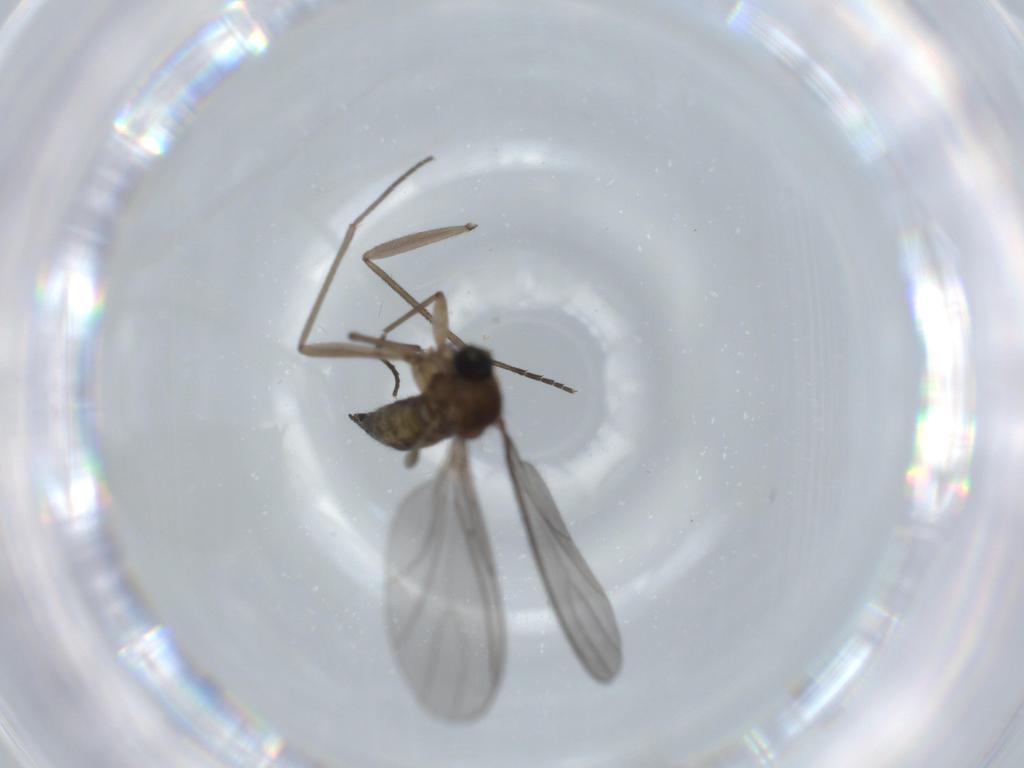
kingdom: Animalia
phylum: Arthropoda
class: Insecta
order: Diptera
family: Sciaridae
